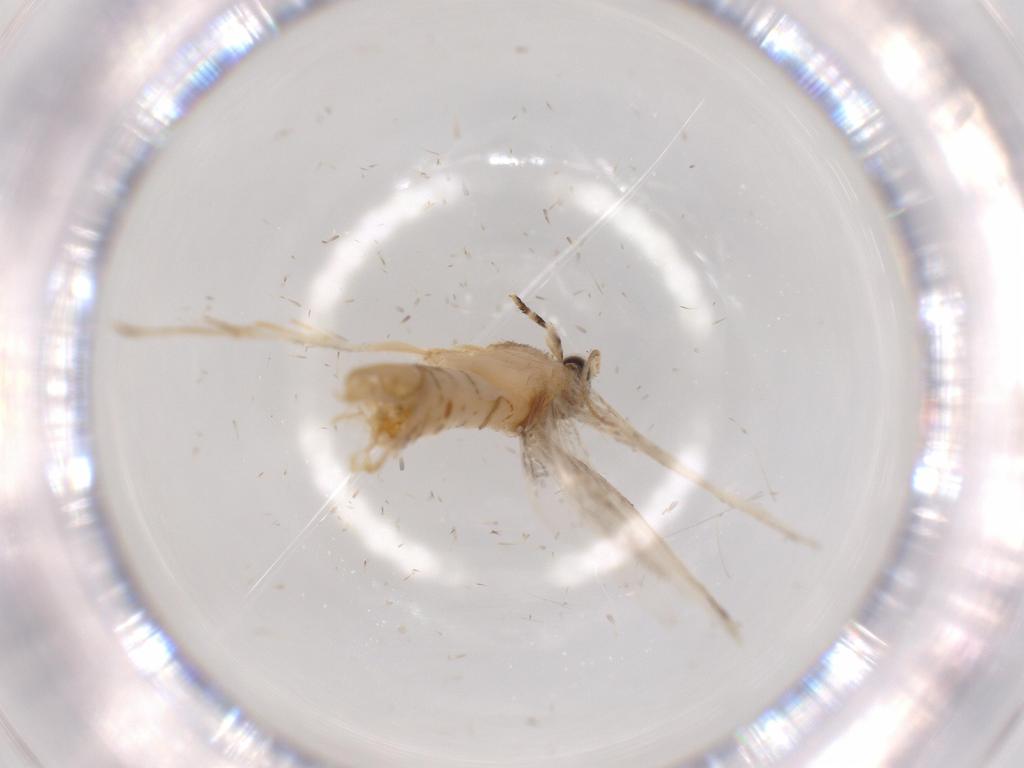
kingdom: Animalia
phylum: Arthropoda
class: Insecta
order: Lepidoptera
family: Tineidae
